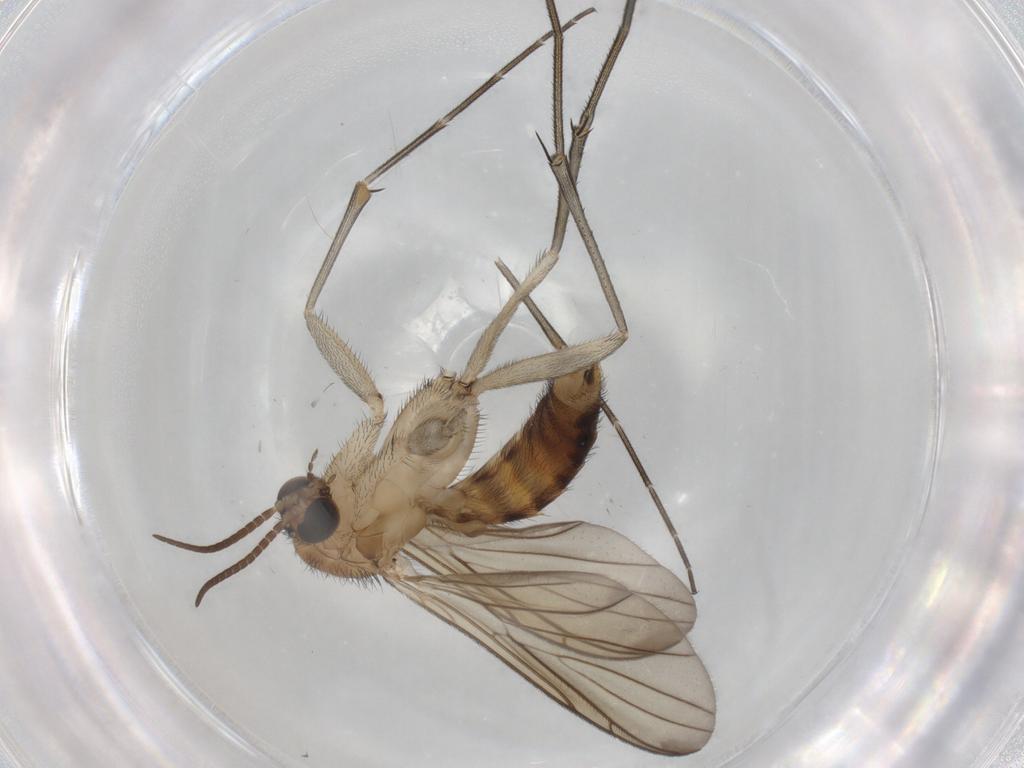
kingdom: Animalia
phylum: Arthropoda
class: Insecta
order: Diptera
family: Keroplatidae
